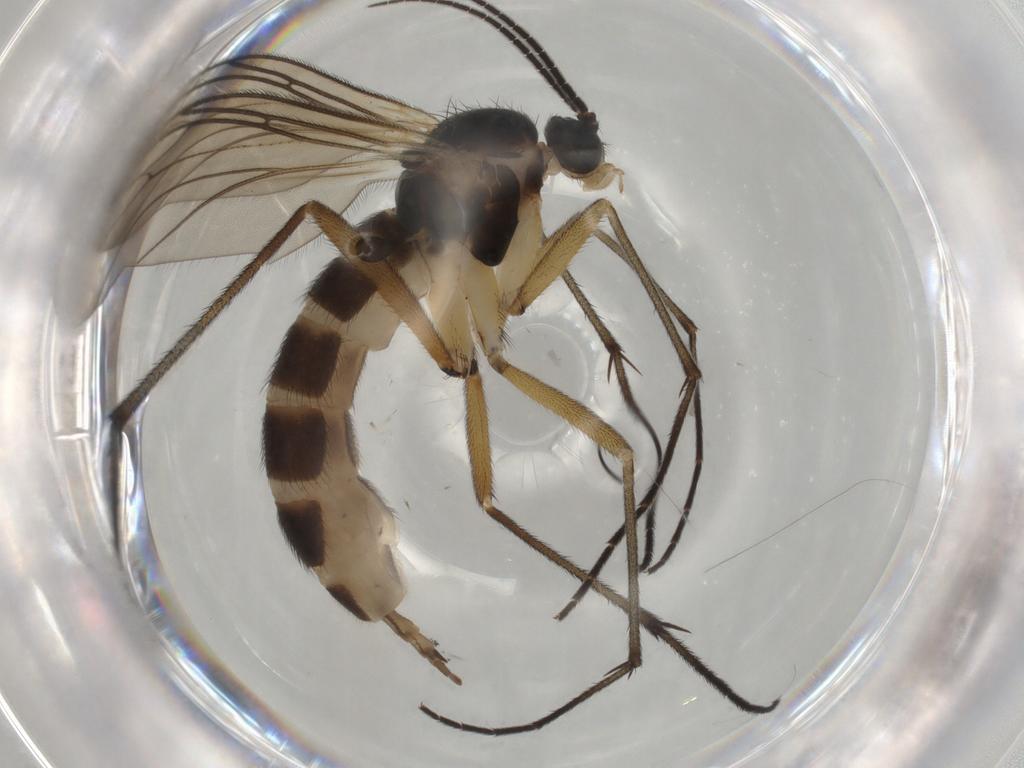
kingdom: Animalia
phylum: Arthropoda
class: Insecta
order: Diptera
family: Sciaridae
